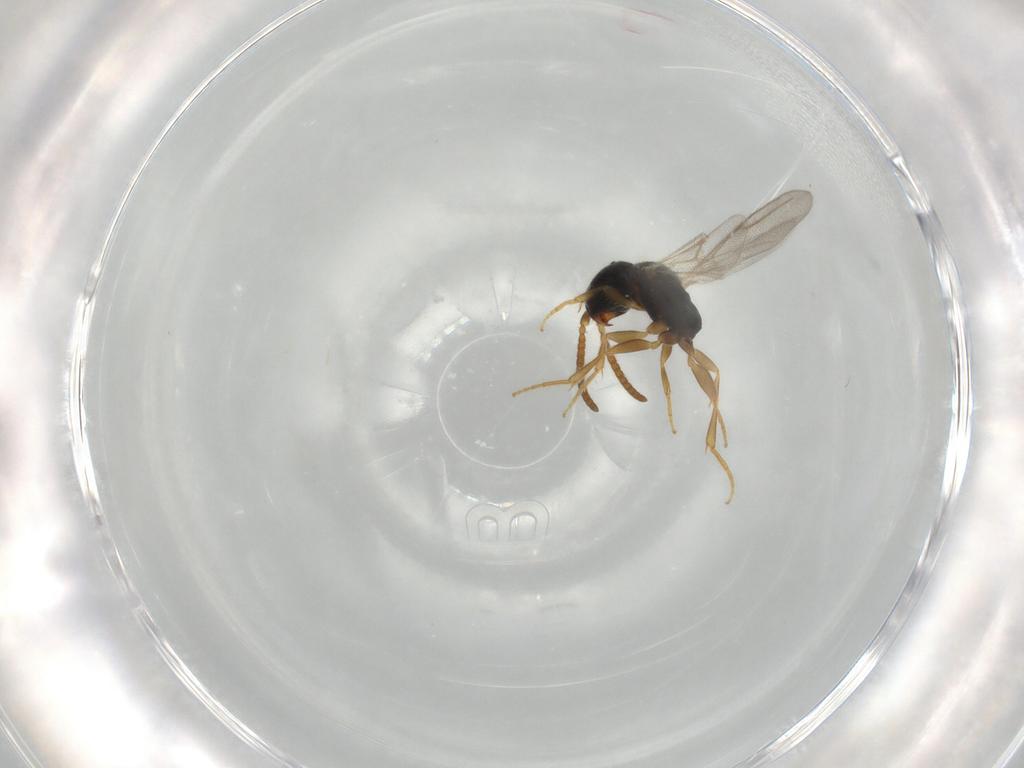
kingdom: Animalia
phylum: Arthropoda
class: Insecta
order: Hymenoptera
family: Bethylidae
